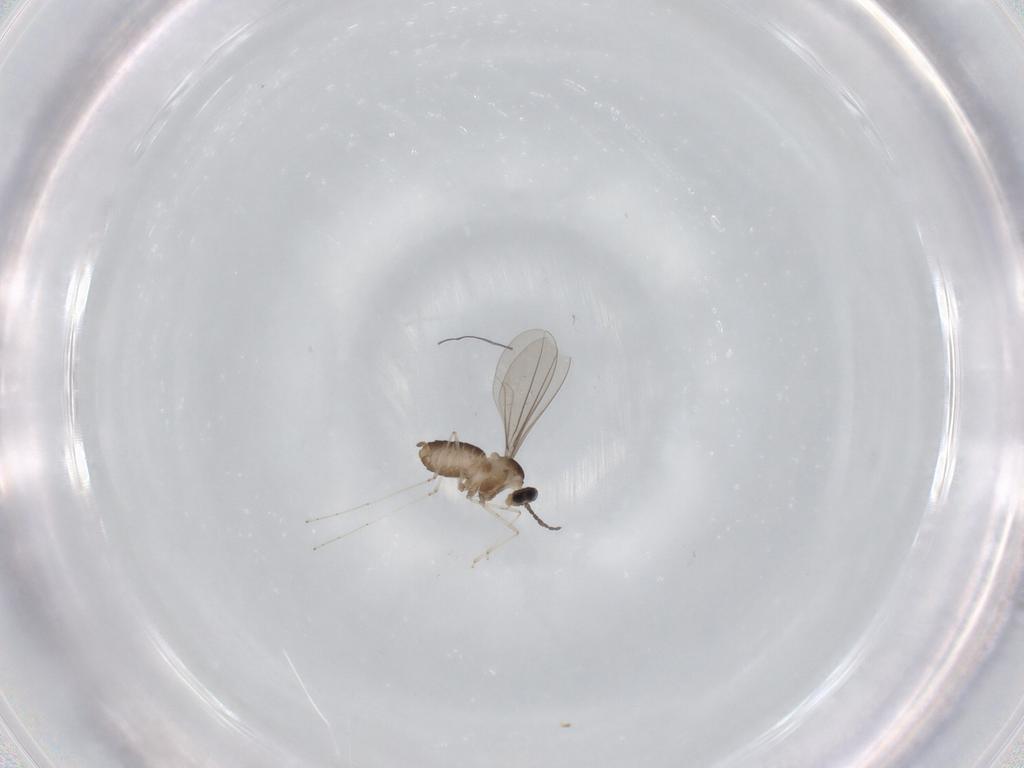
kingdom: Animalia
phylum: Arthropoda
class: Insecta
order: Diptera
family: Cecidomyiidae
